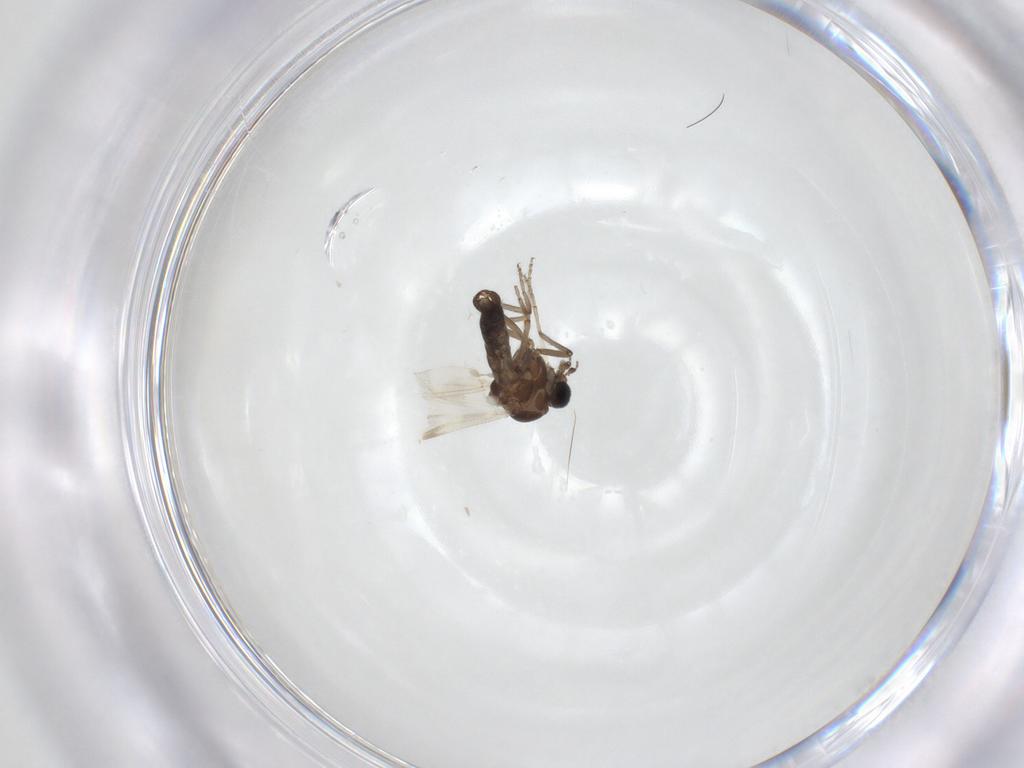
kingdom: Animalia
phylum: Arthropoda
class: Insecta
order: Diptera
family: Ceratopogonidae
